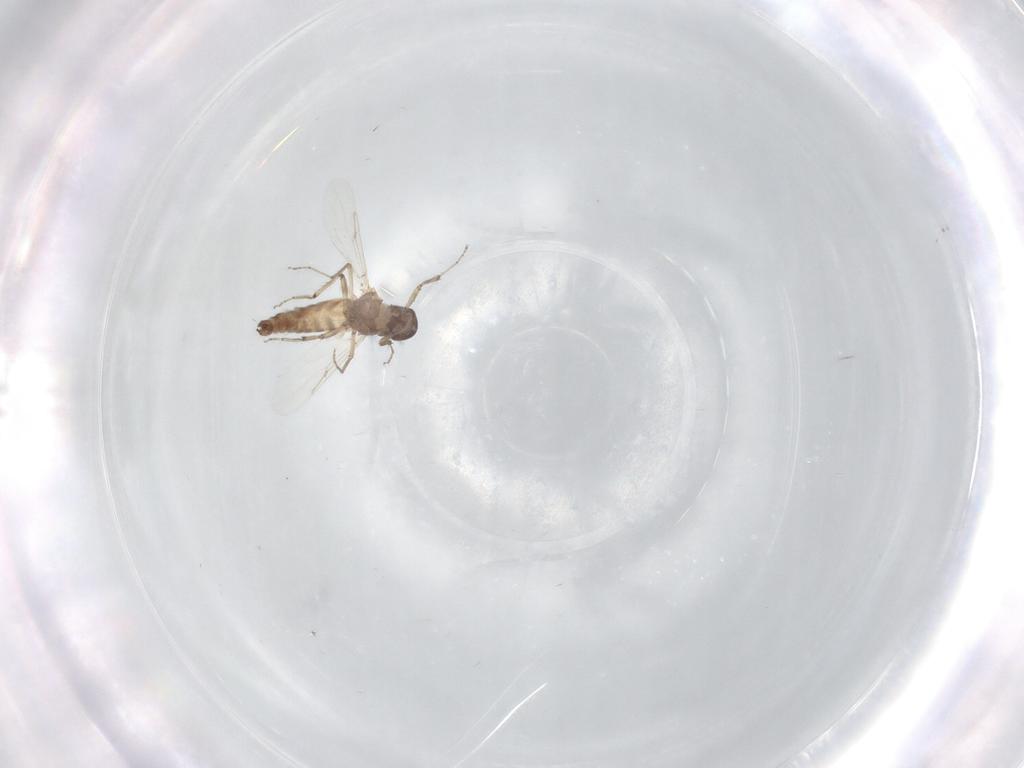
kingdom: Animalia
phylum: Arthropoda
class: Insecta
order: Diptera
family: Ceratopogonidae
